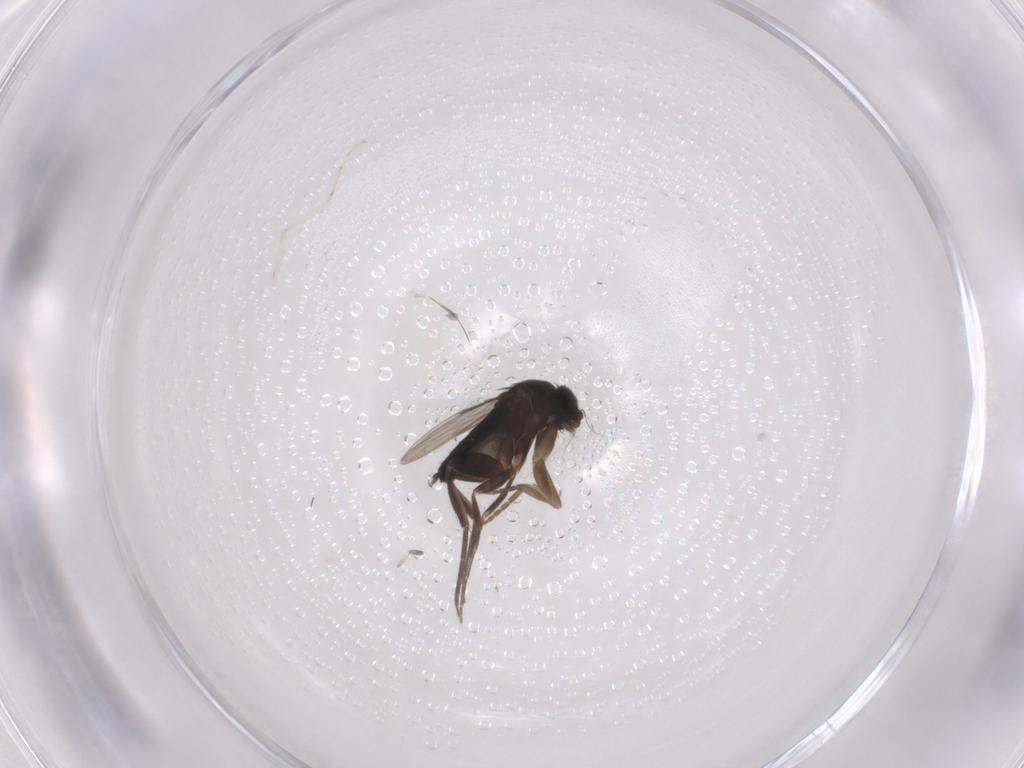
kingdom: Animalia
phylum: Arthropoda
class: Insecta
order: Diptera
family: Phoridae
